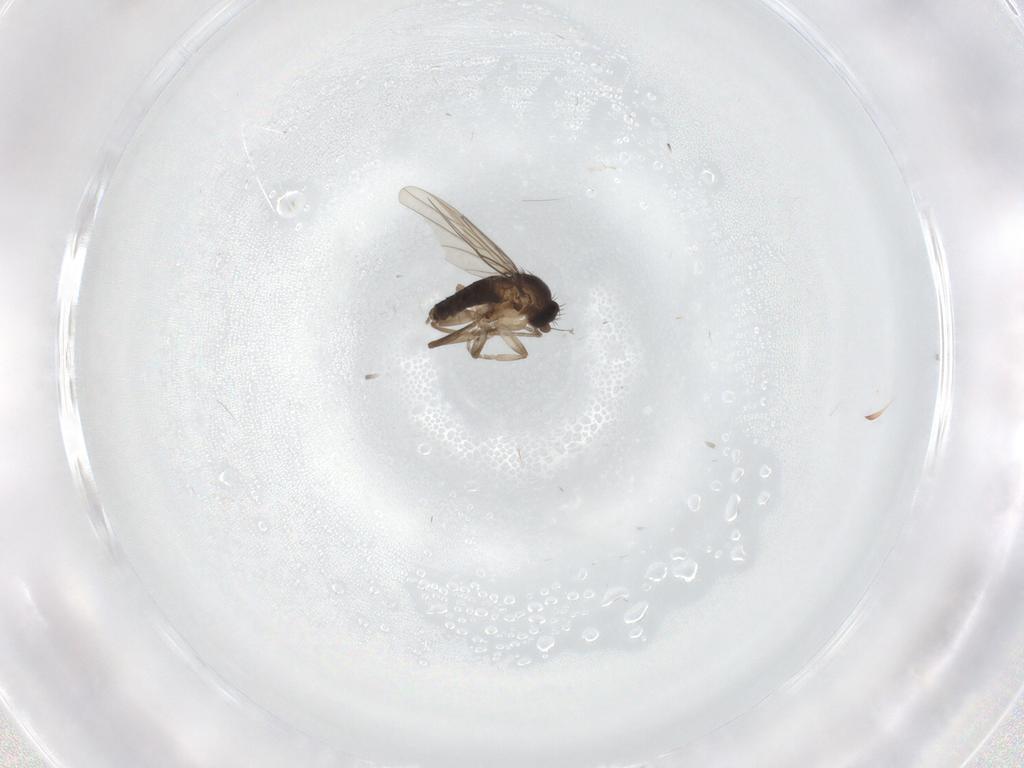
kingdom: Animalia
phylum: Arthropoda
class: Insecta
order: Diptera
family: Phoridae
